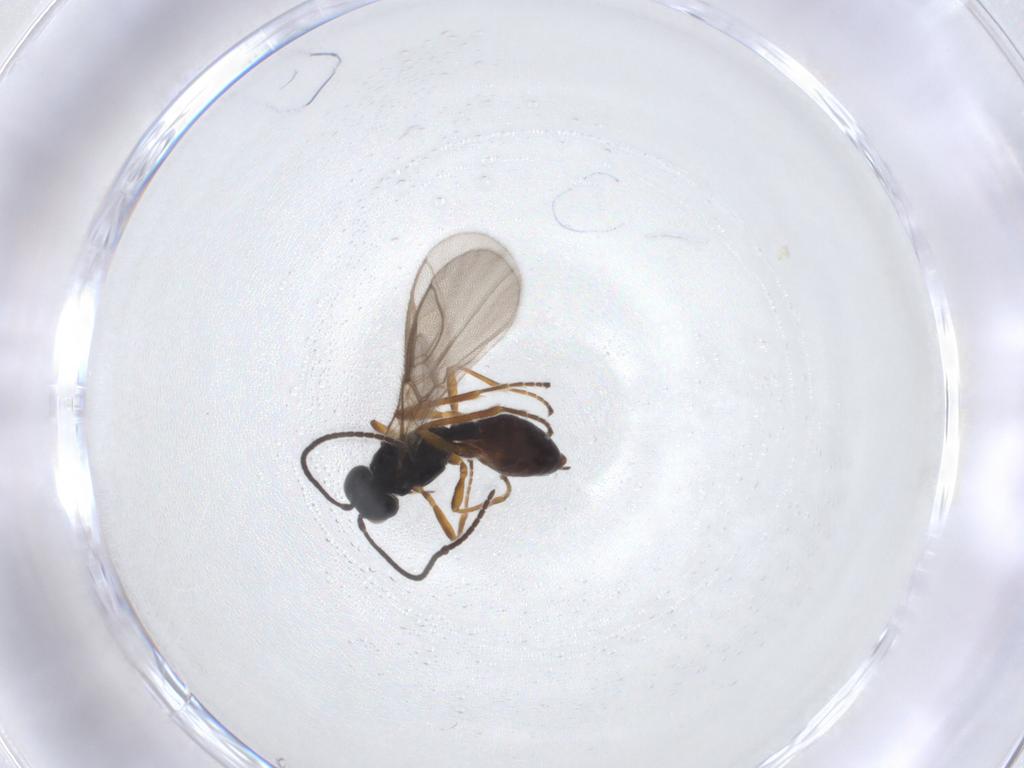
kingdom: Animalia
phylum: Arthropoda
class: Insecta
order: Hymenoptera
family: Braconidae
